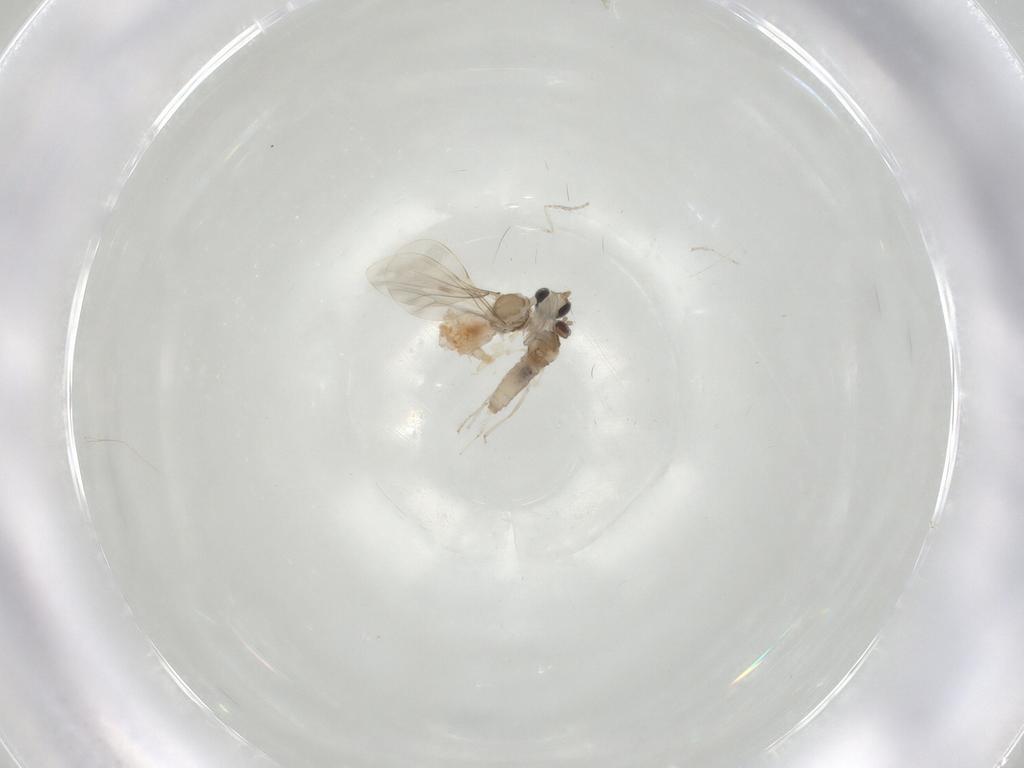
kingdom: Animalia
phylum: Arthropoda
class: Insecta
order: Diptera
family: Cecidomyiidae
